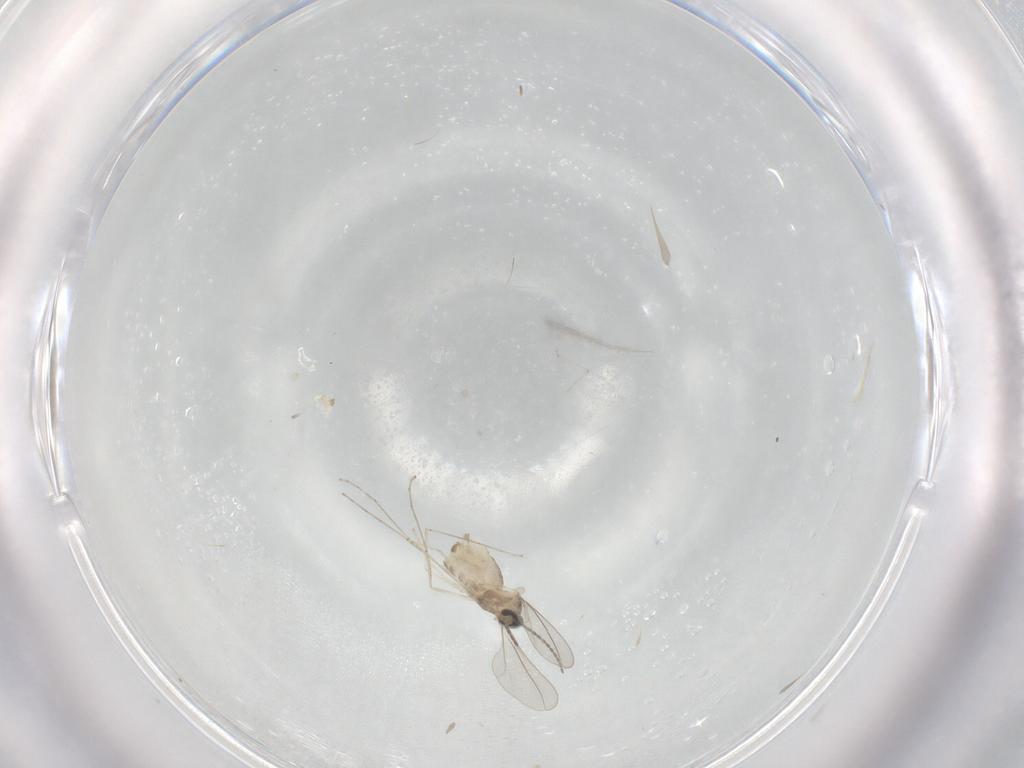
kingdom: Animalia
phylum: Arthropoda
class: Insecta
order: Diptera
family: Cecidomyiidae
